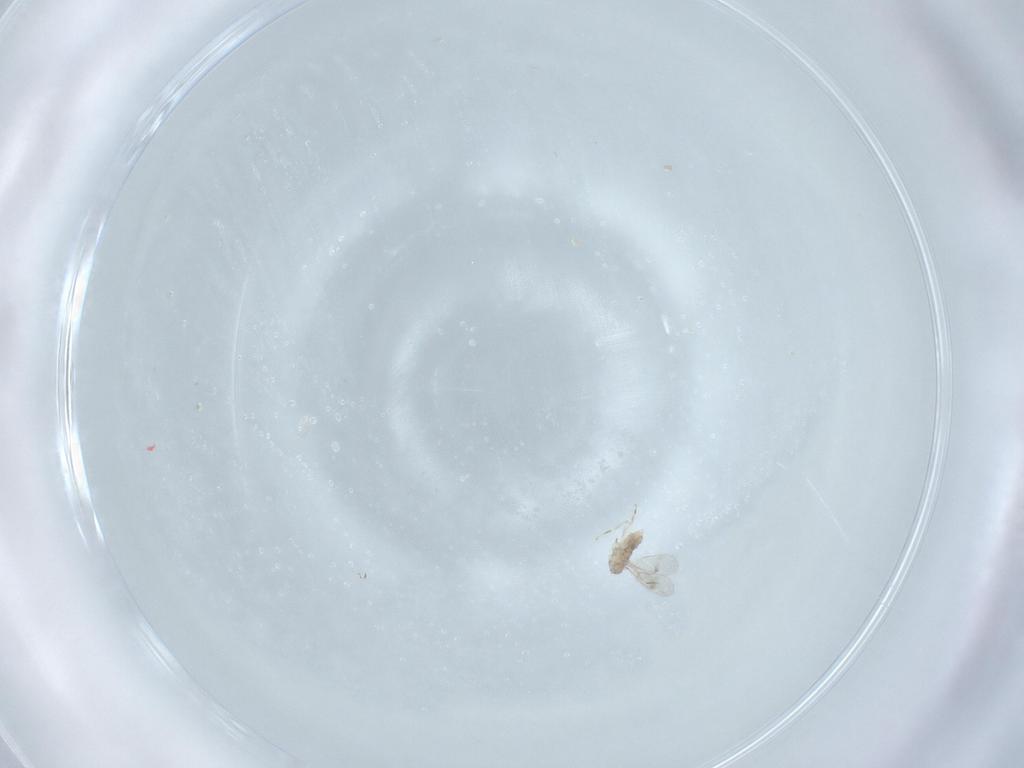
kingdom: Animalia
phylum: Arthropoda
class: Insecta
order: Hymenoptera
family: Aphelinidae
